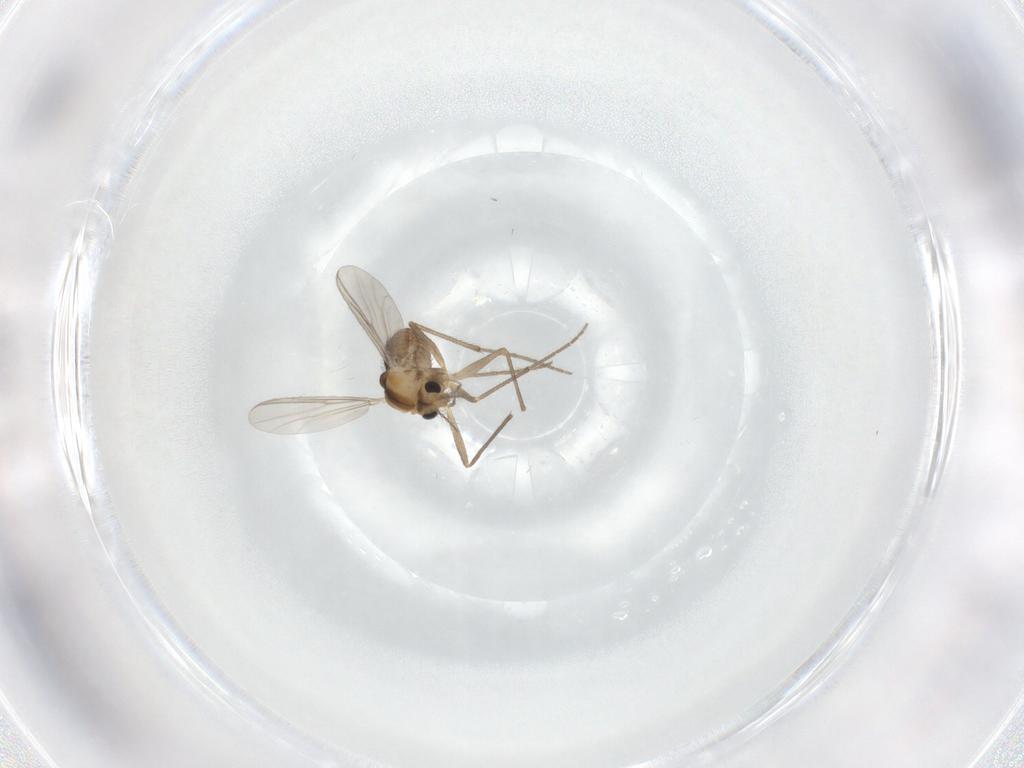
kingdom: Animalia
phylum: Arthropoda
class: Insecta
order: Diptera
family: Chironomidae
